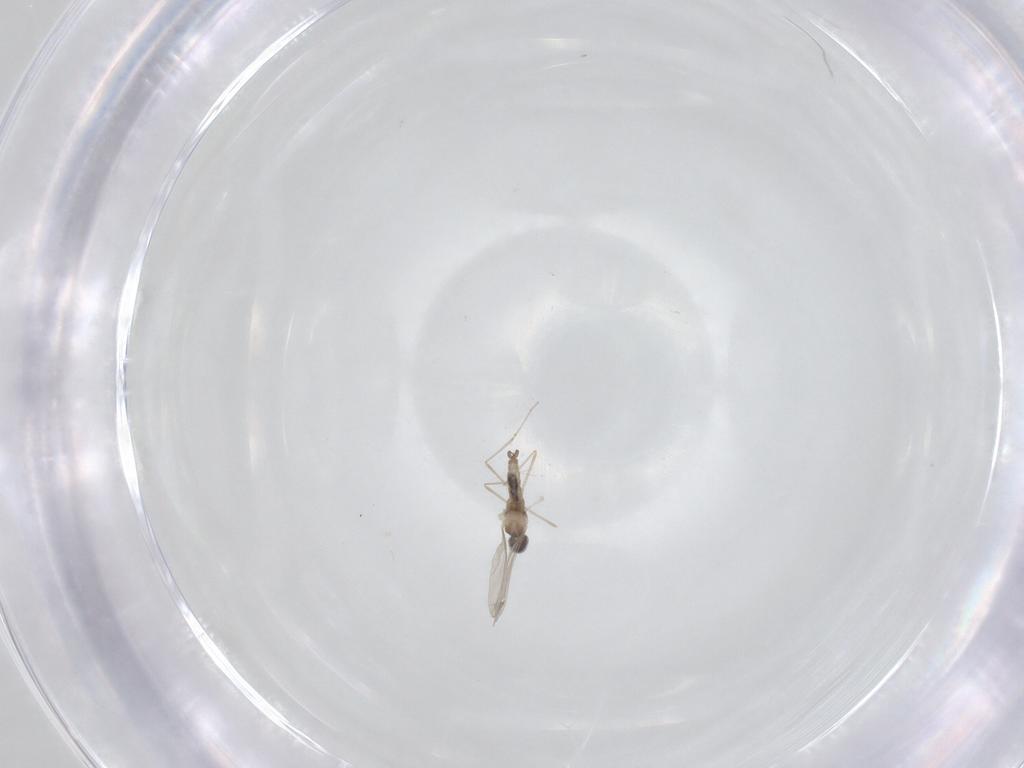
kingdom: Animalia
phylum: Arthropoda
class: Insecta
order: Diptera
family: Cecidomyiidae
